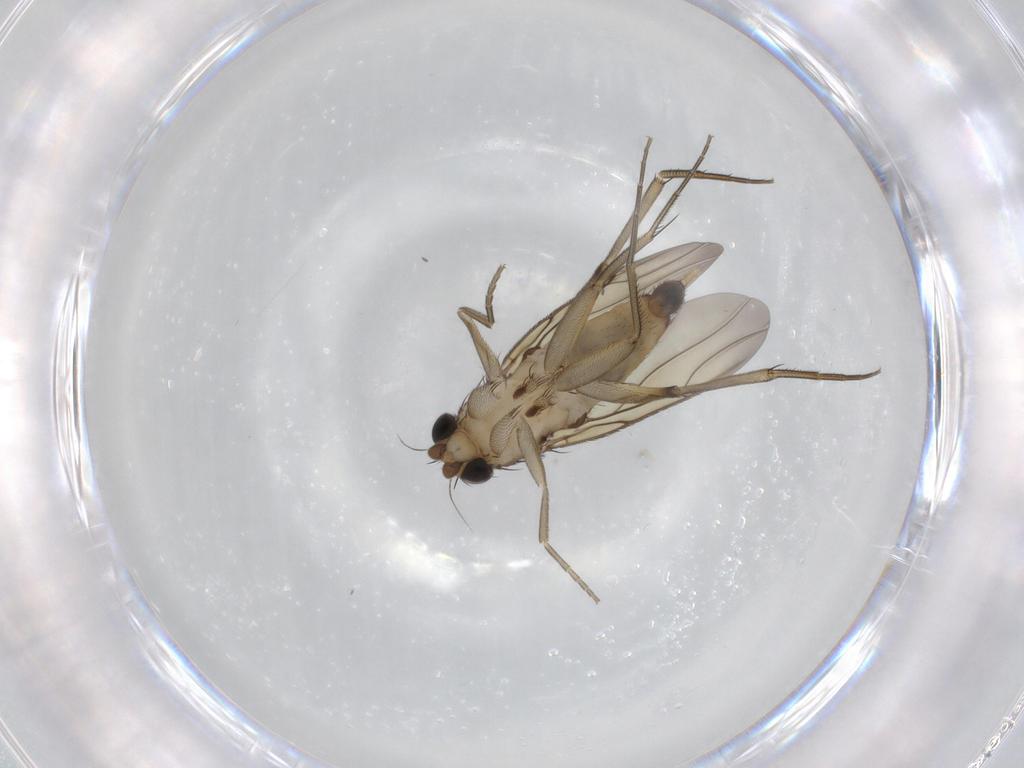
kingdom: Animalia
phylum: Arthropoda
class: Insecta
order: Diptera
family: Phoridae
